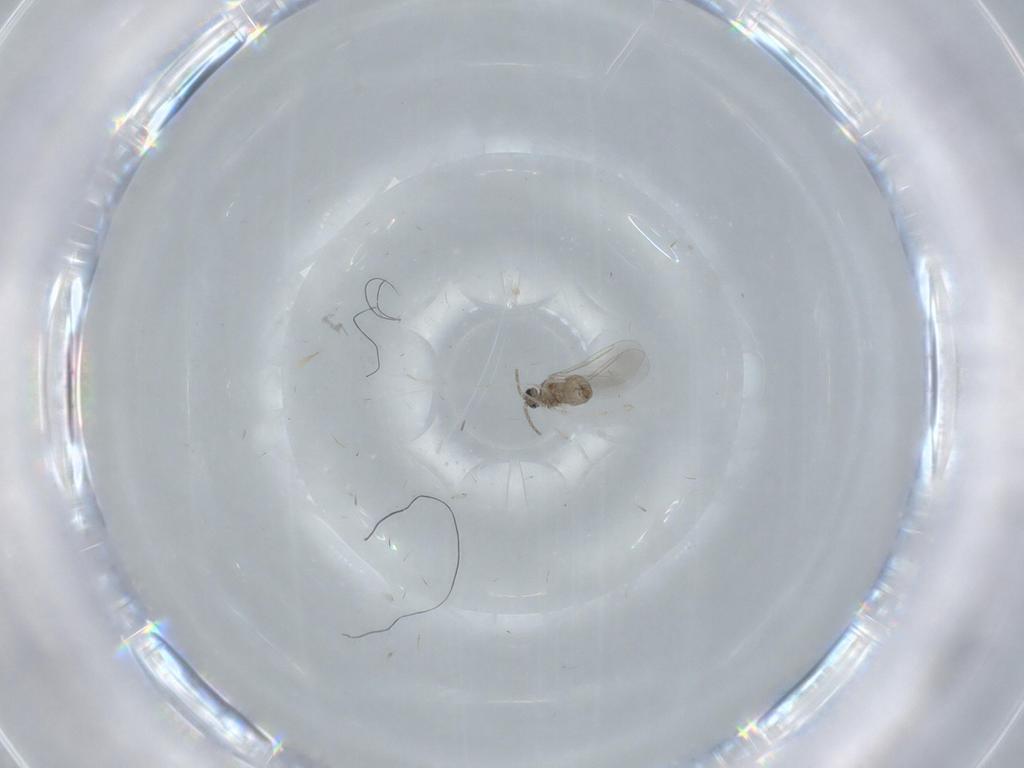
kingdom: Animalia
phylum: Arthropoda
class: Insecta
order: Diptera
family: Cecidomyiidae
